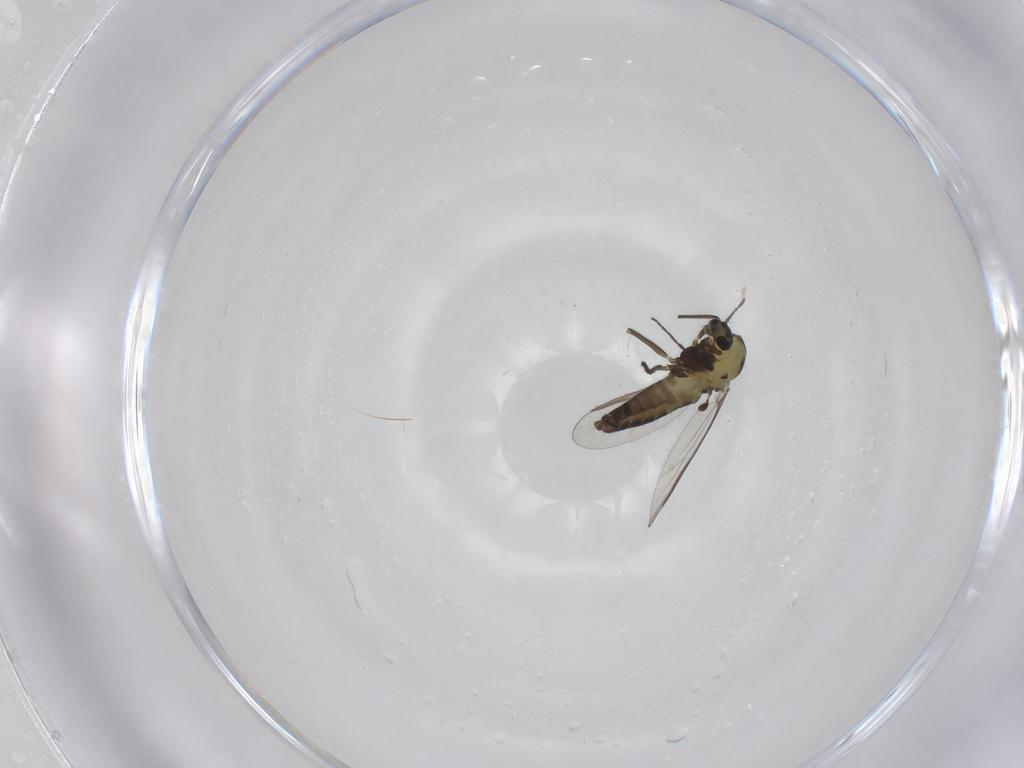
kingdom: Animalia
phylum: Arthropoda
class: Insecta
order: Diptera
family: Chironomidae
